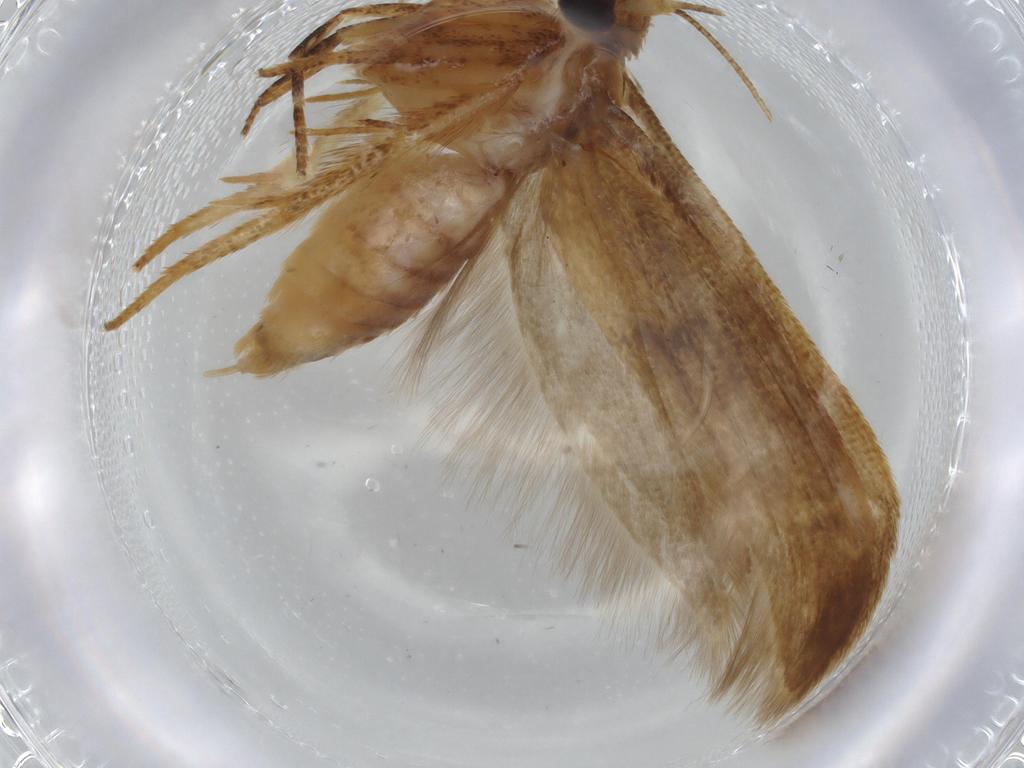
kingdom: Animalia
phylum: Arthropoda
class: Insecta
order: Lepidoptera
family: Coleophoridae
